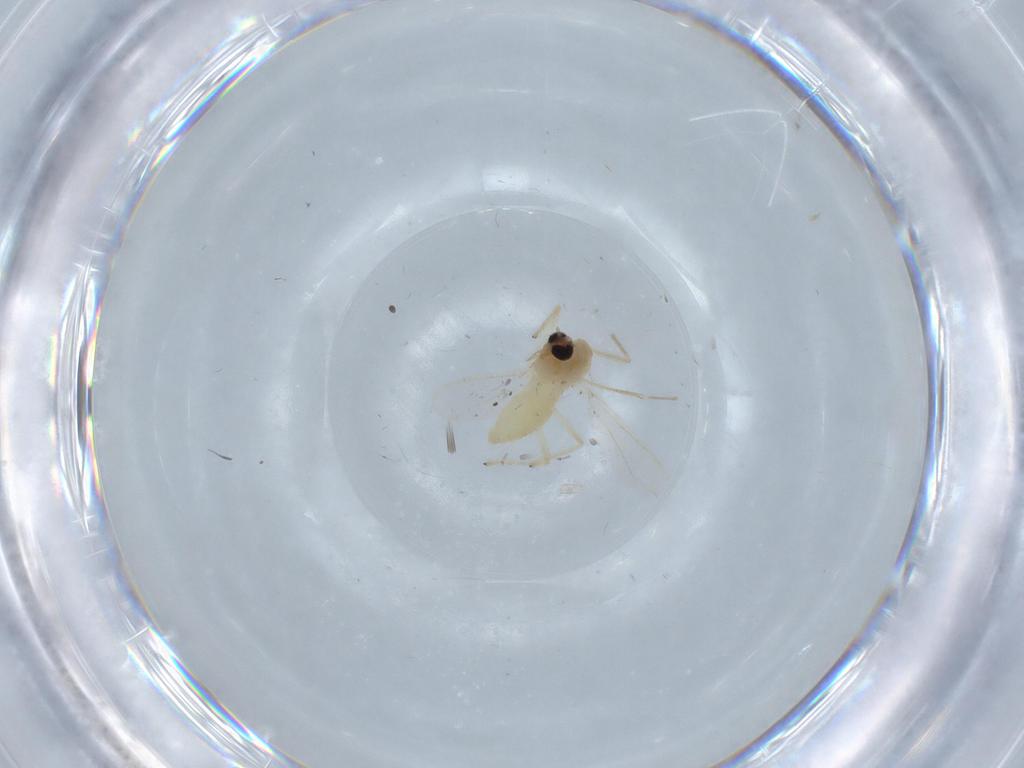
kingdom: Animalia
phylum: Arthropoda
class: Insecta
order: Diptera
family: Chironomidae
